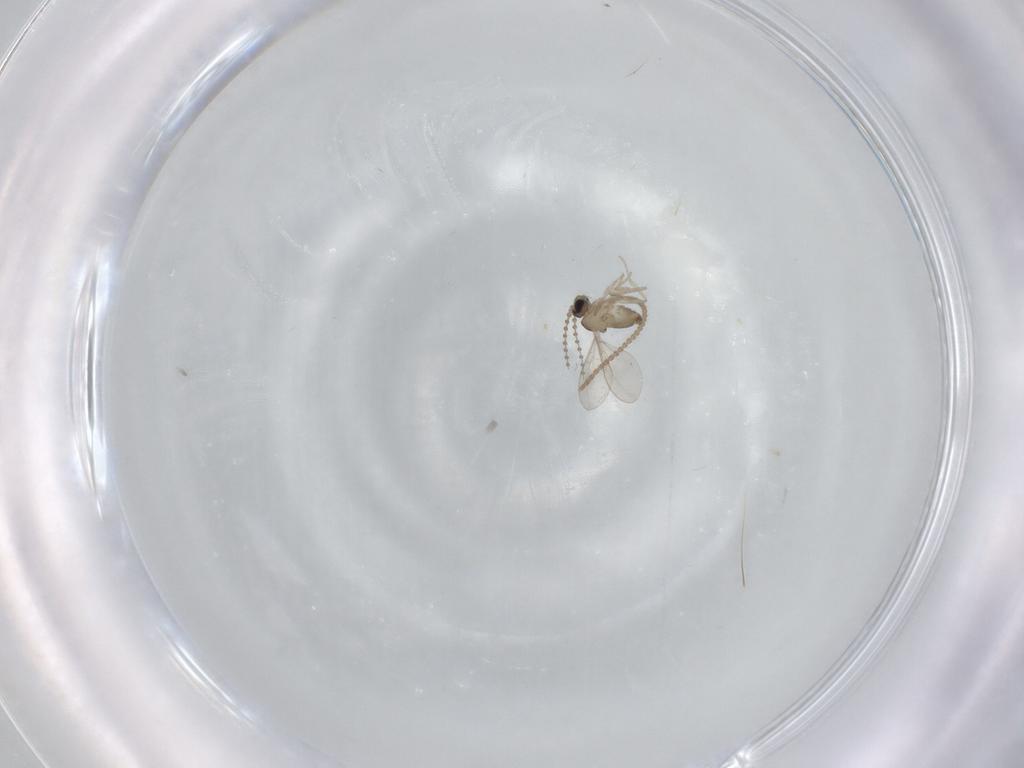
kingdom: Animalia
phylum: Arthropoda
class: Insecta
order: Diptera
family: Cecidomyiidae
